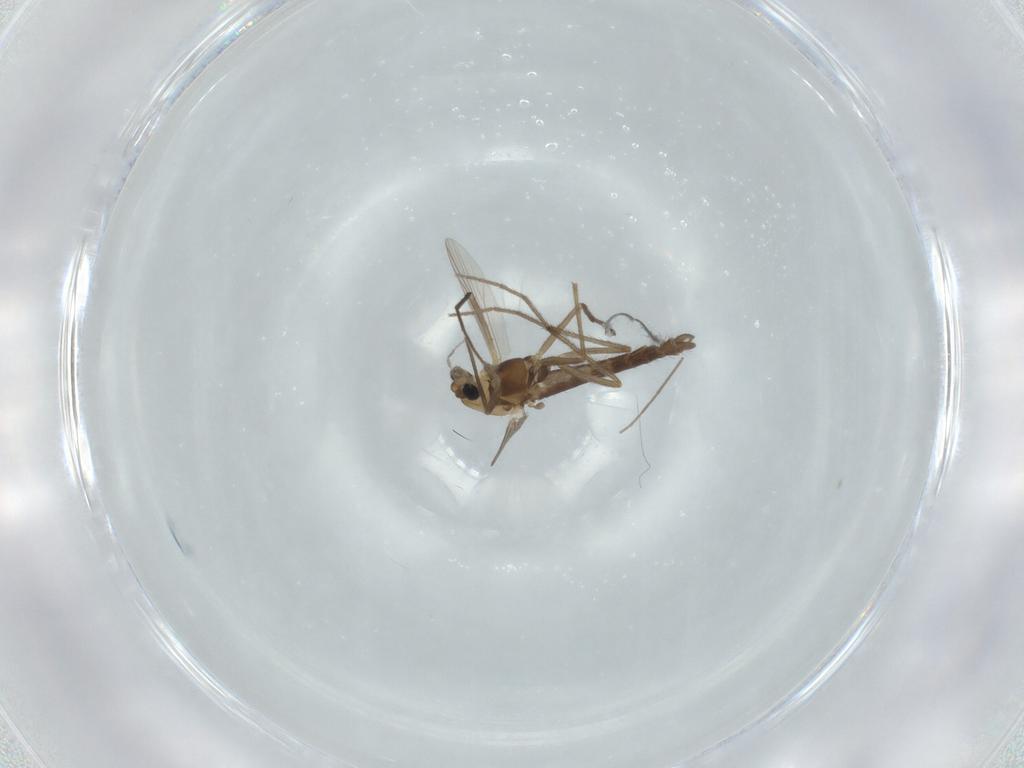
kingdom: Animalia
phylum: Arthropoda
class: Insecta
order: Diptera
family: Chironomidae
